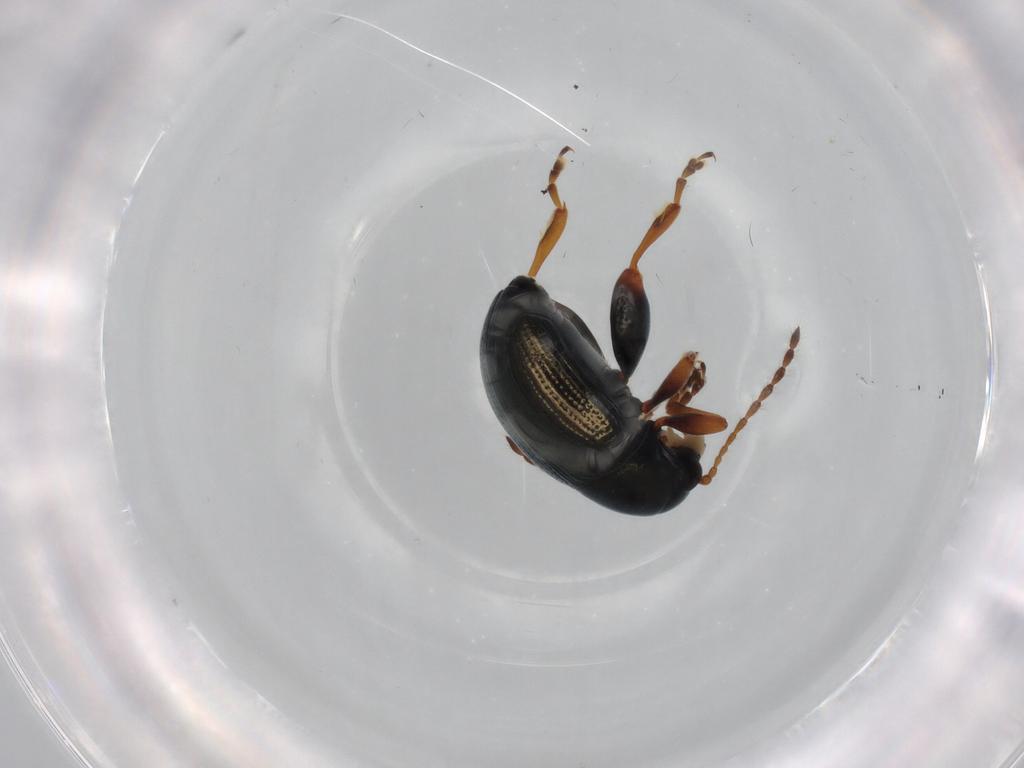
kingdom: Animalia
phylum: Arthropoda
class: Insecta
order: Coleoptera
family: Chrysomelidae
